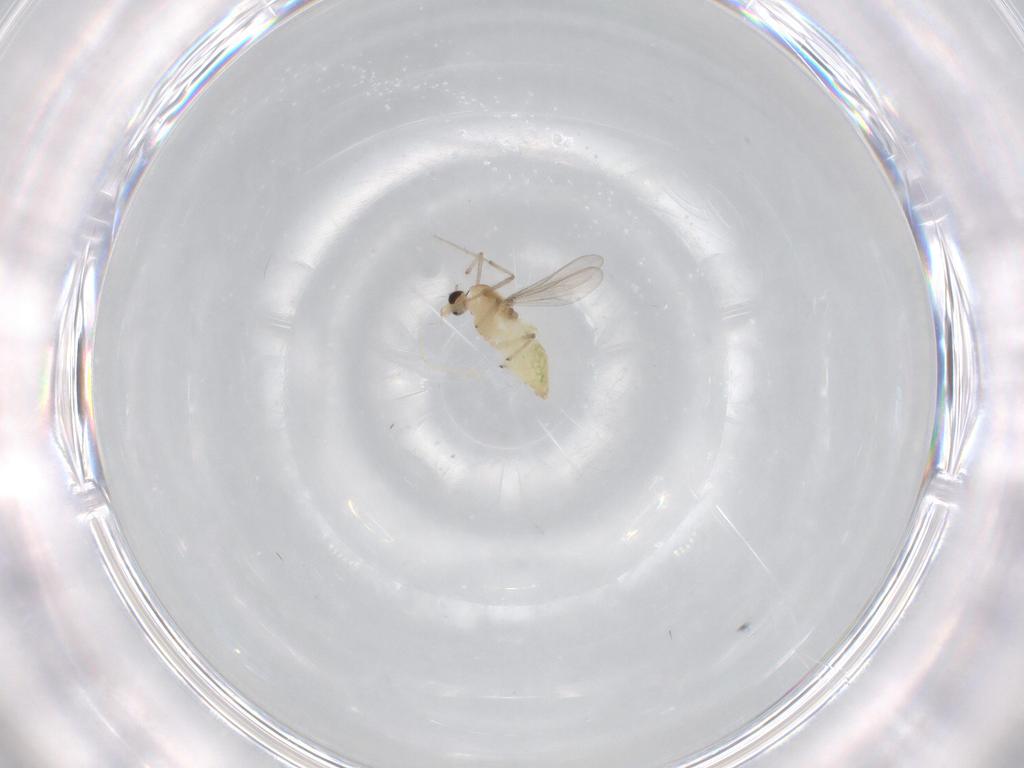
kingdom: Animalia
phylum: Arthropoda
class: Insecta
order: Diptera
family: Chironomidae
